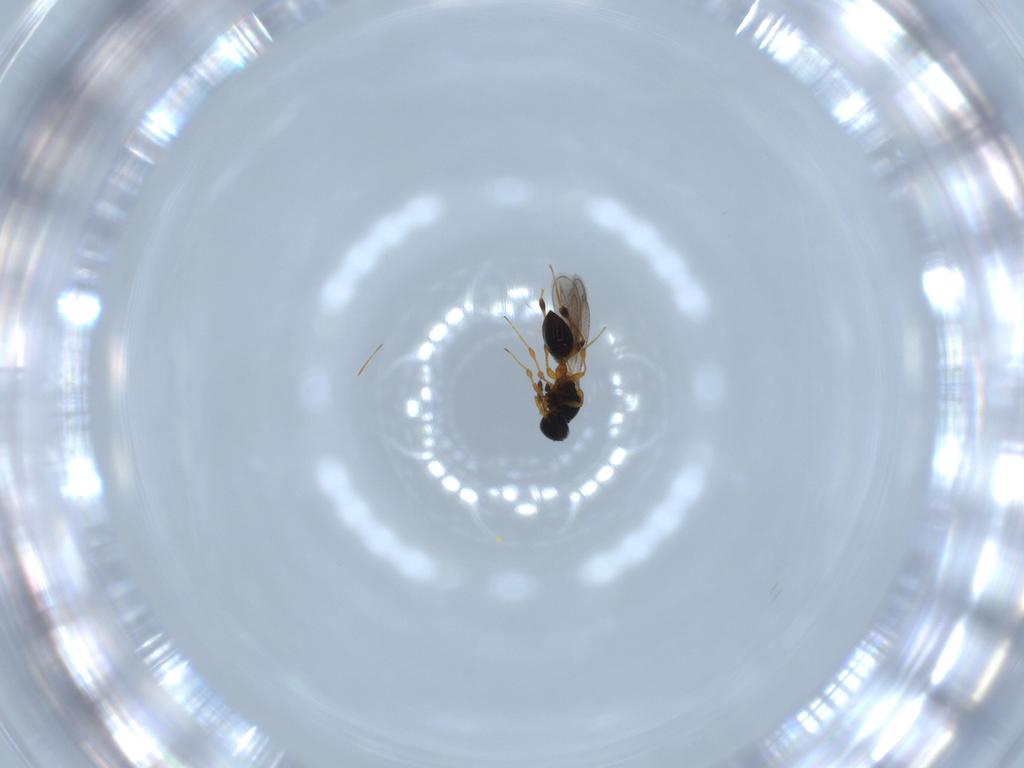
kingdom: Animalia
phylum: Arthropoda
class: Insecta
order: Hymenoptera
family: Platygastridae
